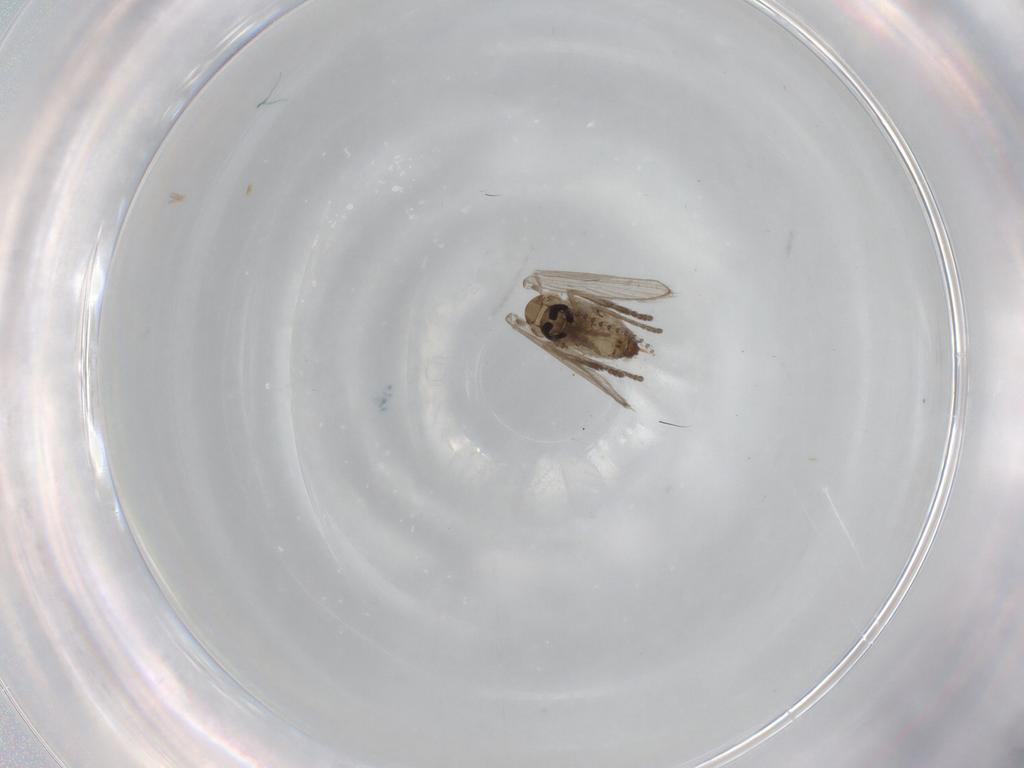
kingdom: Animalia
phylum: Arthropoda
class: Insecta
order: Diptera
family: Psychodidae
